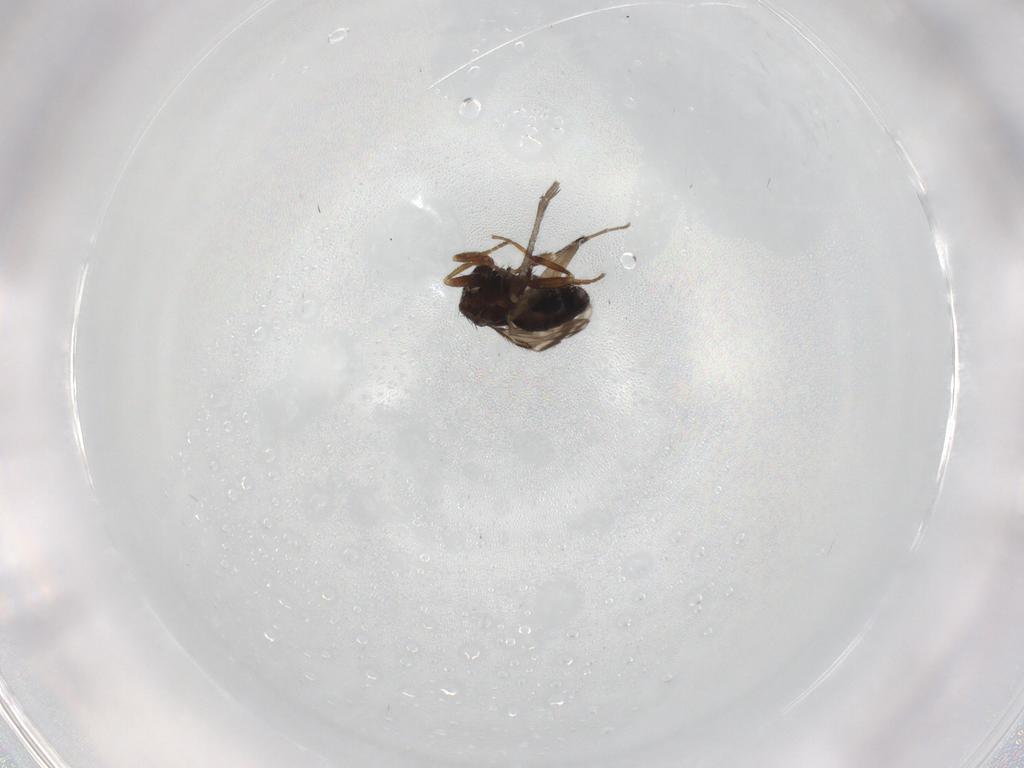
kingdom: Animalia
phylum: Arthropoda
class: Insecta
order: Diptera
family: Sphaeroceridae
